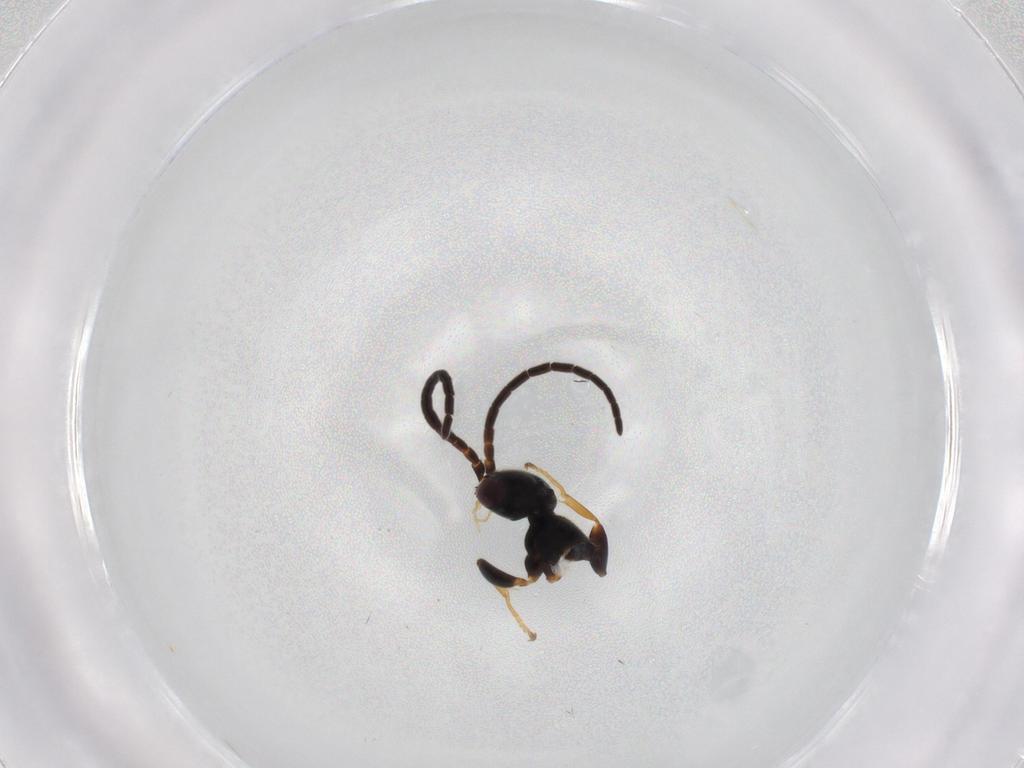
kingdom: Animalia
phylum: Arthropoda
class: Insecta
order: Hymenoptera
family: Bethylidae
